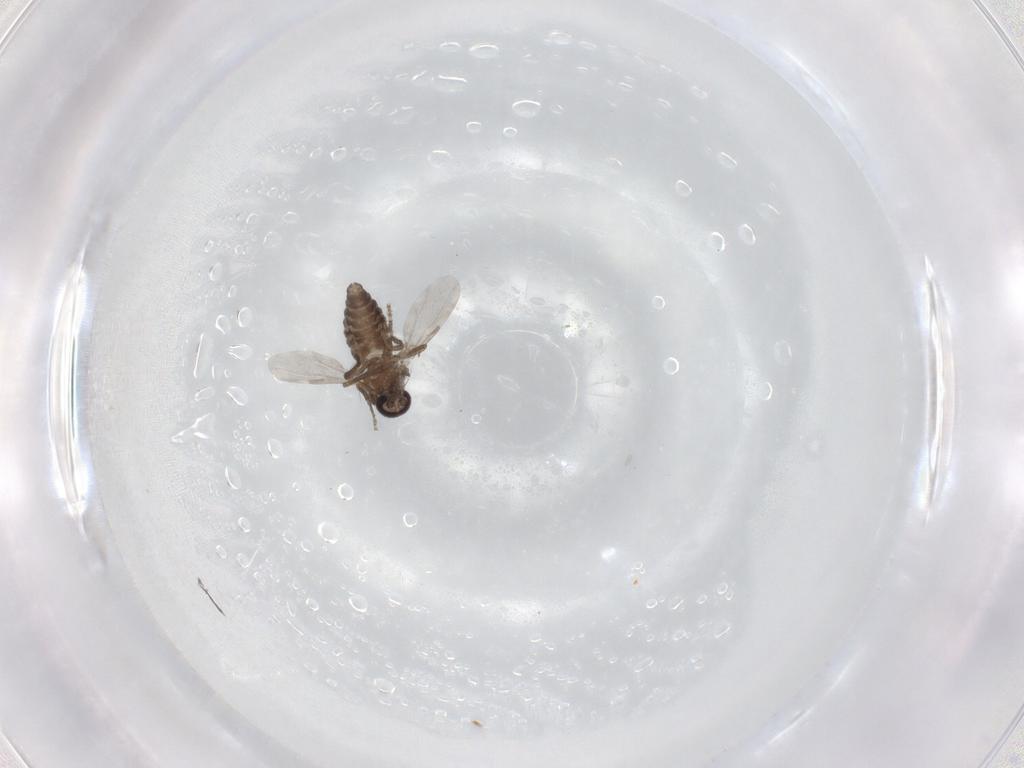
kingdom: Animalia
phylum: Arthropoda
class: Insecta
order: Diptera
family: Ceratopogonidae
